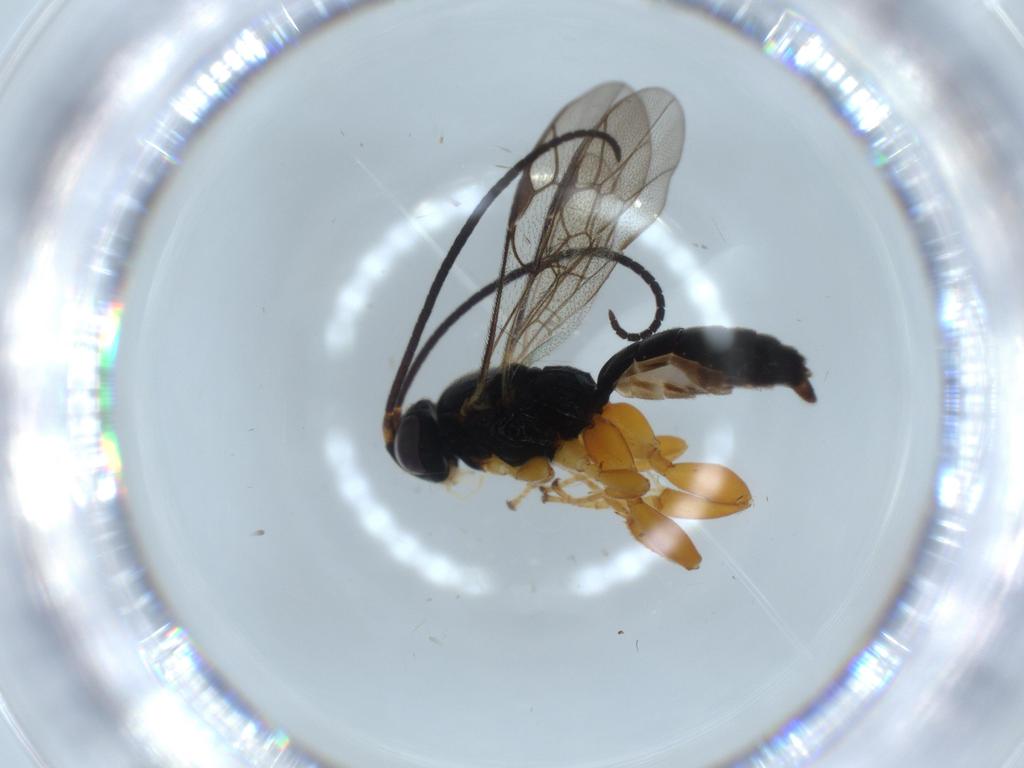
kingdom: Animalia
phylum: Arthropoda
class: Insecta
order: Hymenoptera
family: Ichneumonidae
